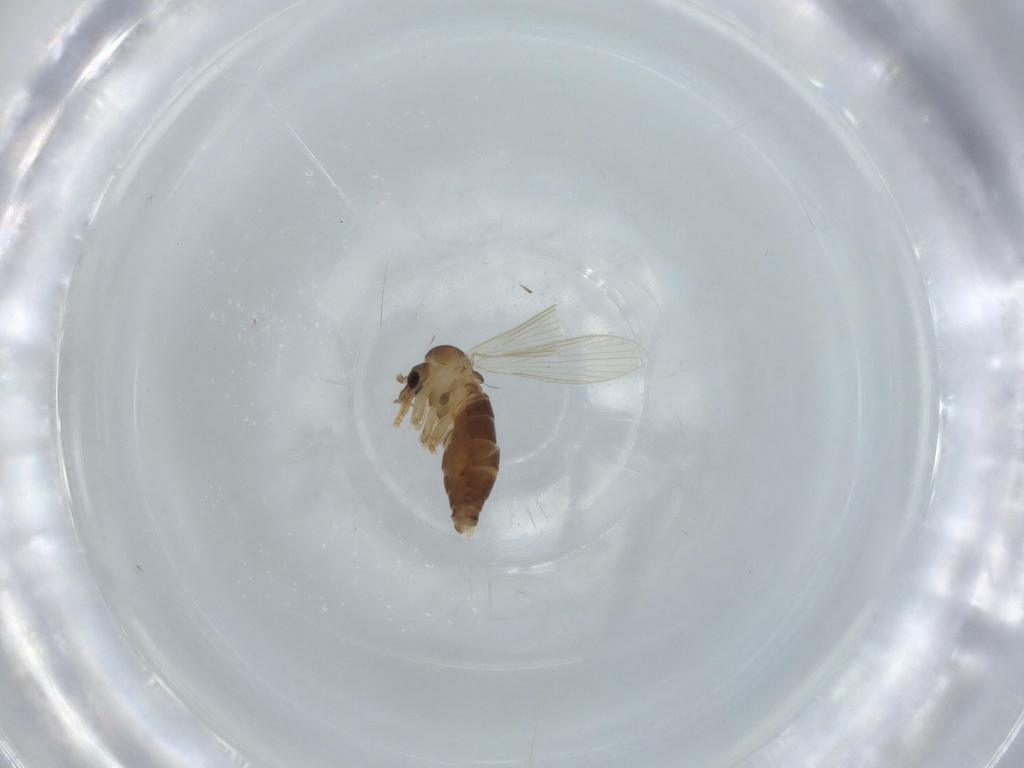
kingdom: Animalia
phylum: Arthropoda
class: Insecta
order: Diptera
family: Psychodidae
